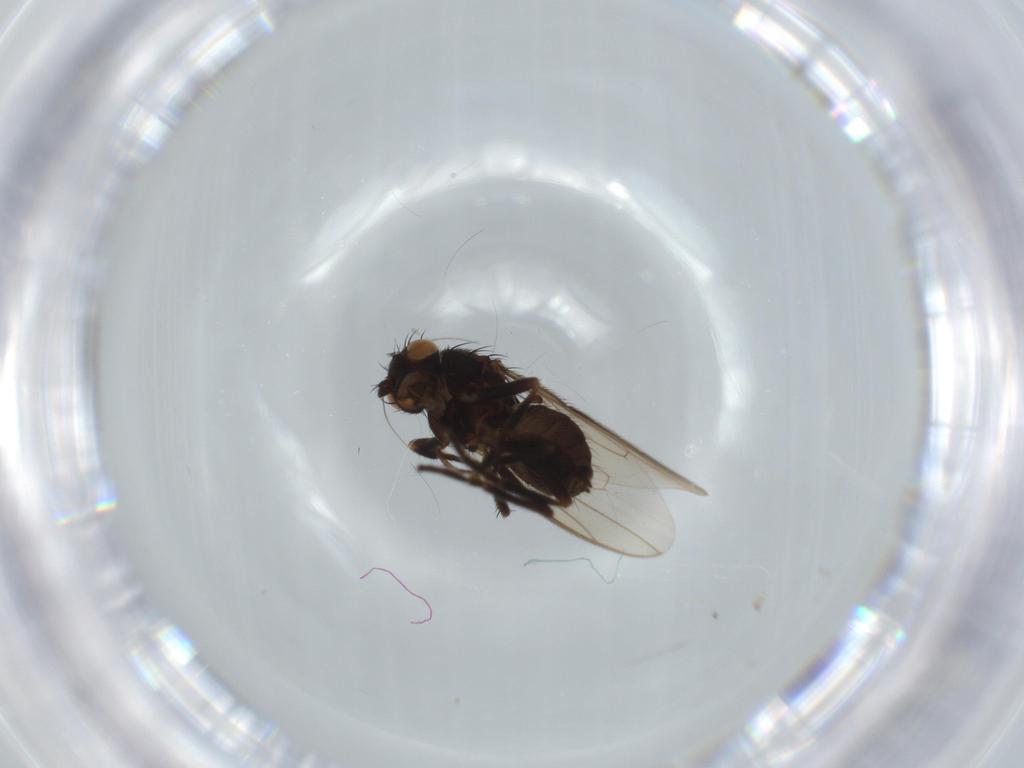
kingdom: Animalia
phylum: Arthropoda
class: Insecta
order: Diptera
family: Sphaeroceridae
